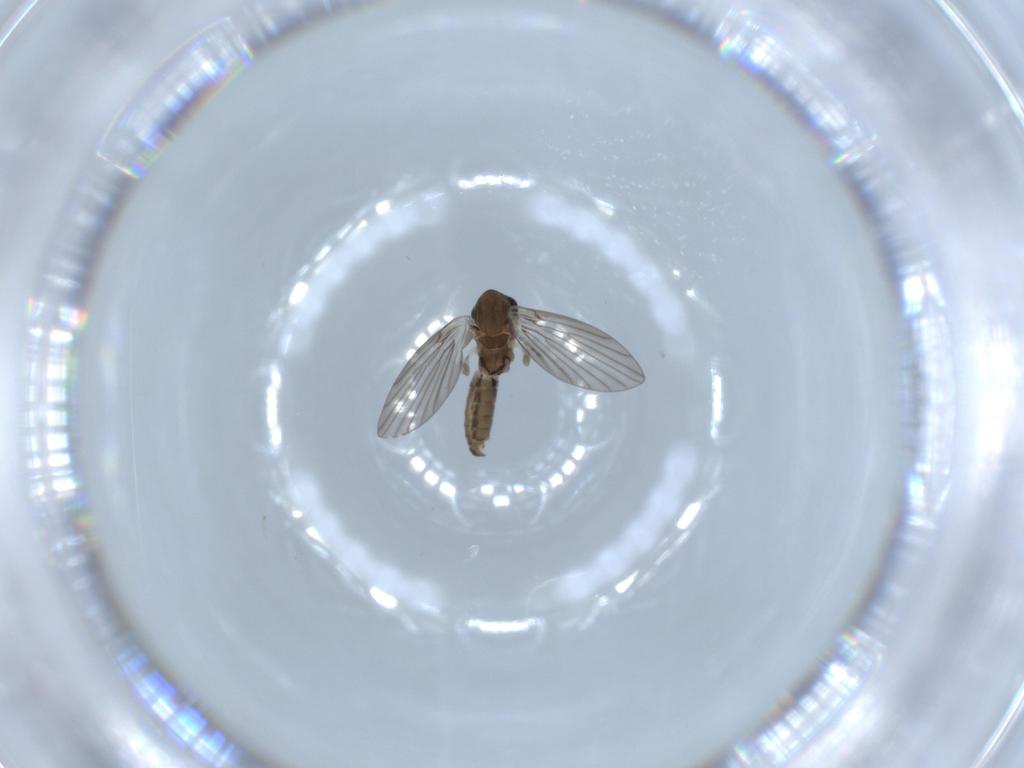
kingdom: Animalia
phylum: Arthropoda
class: Insecta
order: Diptera
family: Psychodidae
